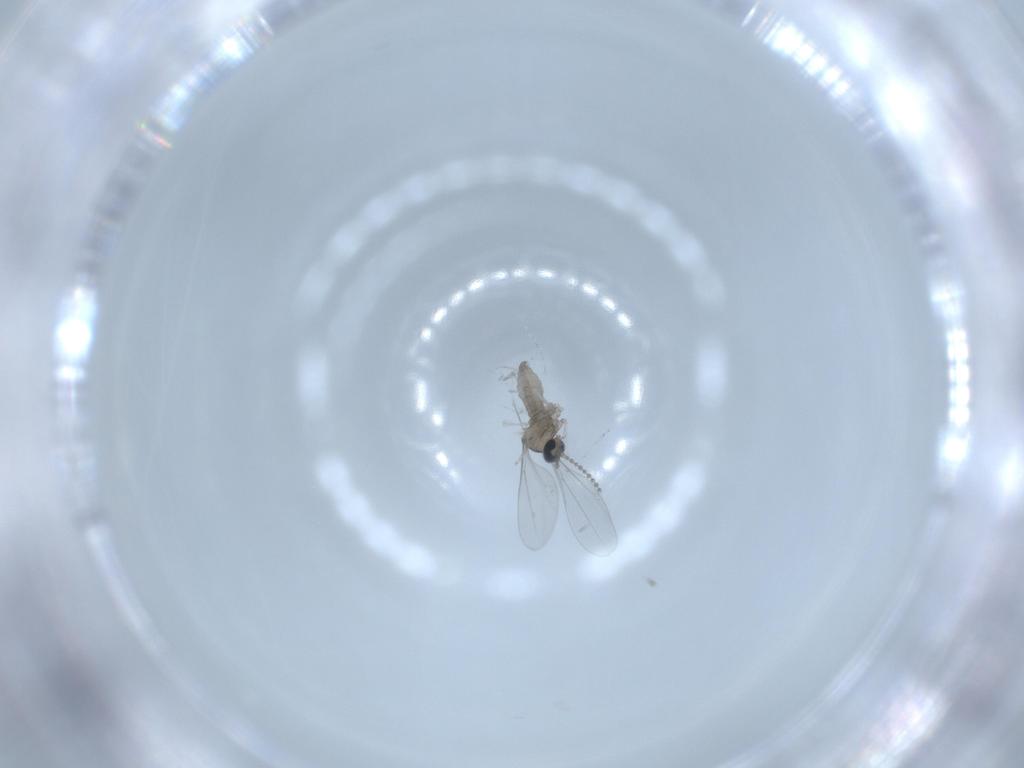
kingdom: Animalia
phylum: Arthropoda
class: Insecta
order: Diptera
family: Cecidomyiidae
